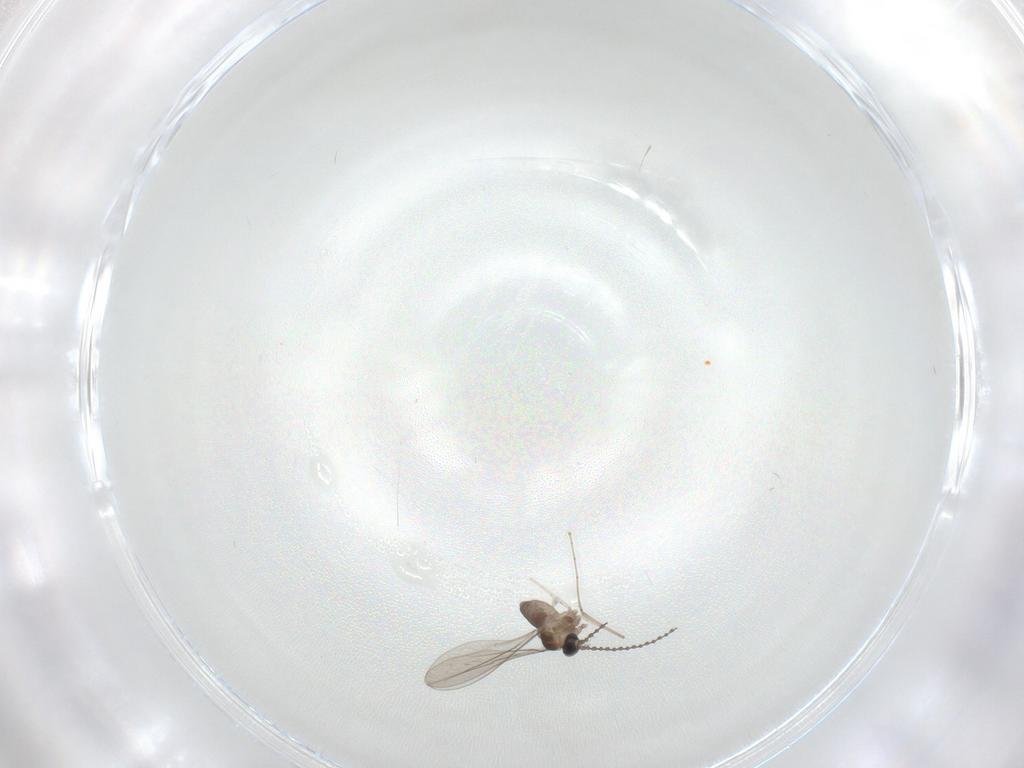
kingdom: Animalia
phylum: Arthropoda
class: Insecta
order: Diptera
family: Cecidomyiidae
